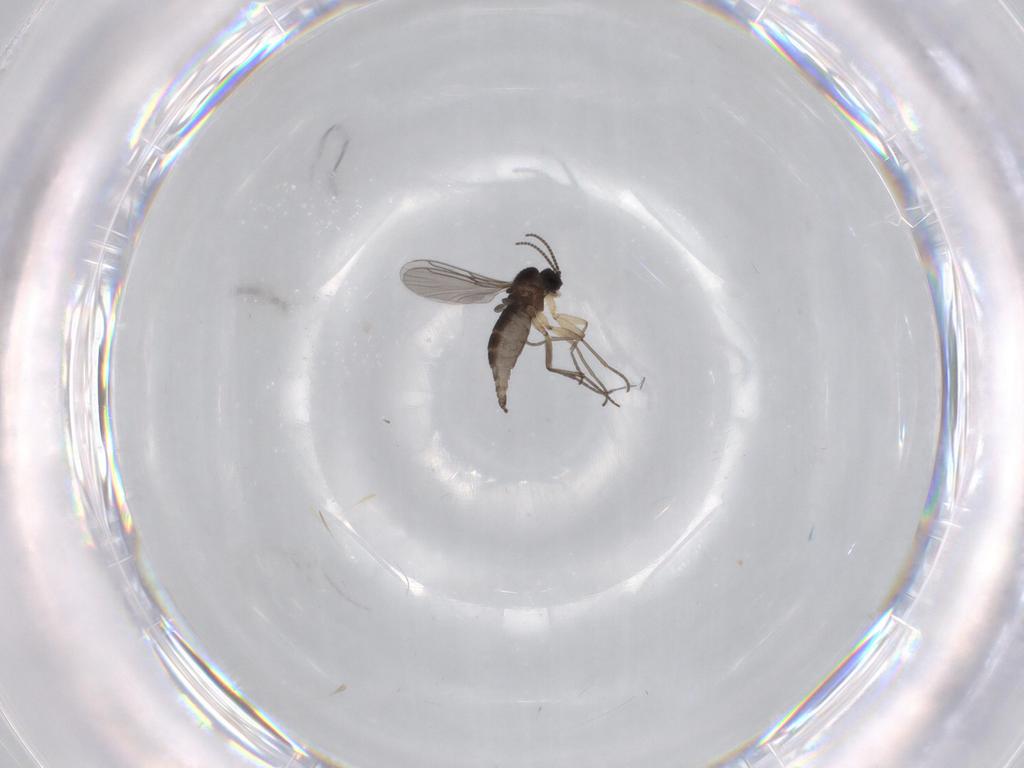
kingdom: Animalia
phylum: Arthropoda
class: Insecta
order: Diptera
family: Sciaridae
